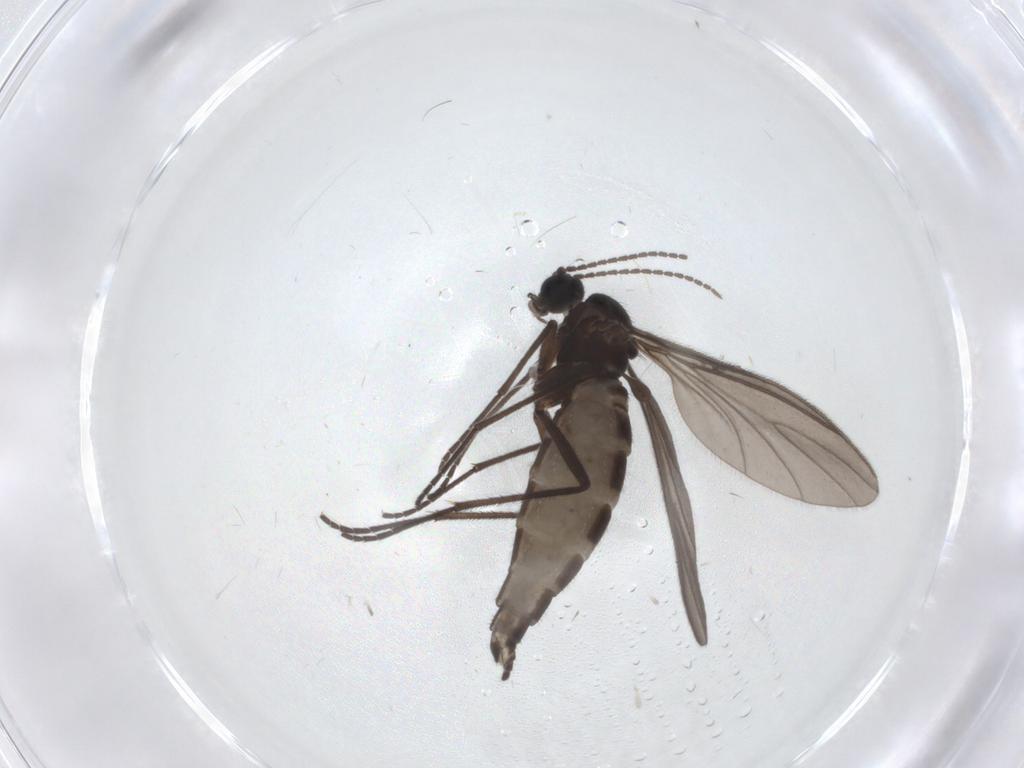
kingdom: Animalia
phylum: Arthropoda
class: Insecta
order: Diptera
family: Sciaridae
